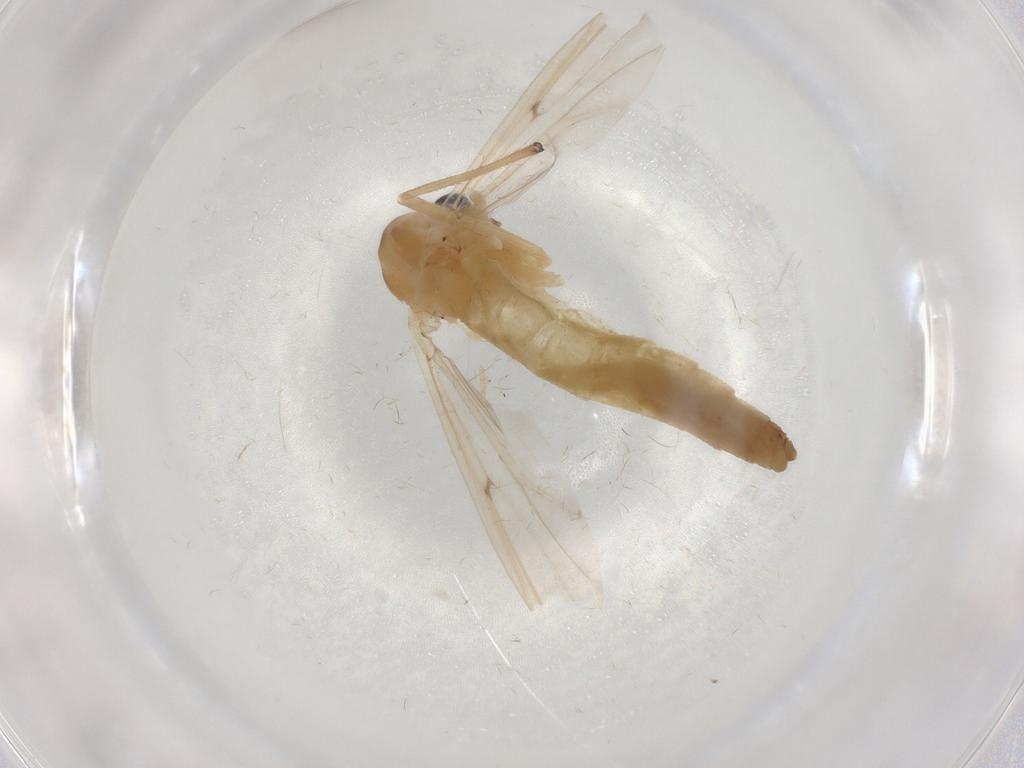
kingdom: Animalia
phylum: Arthropoda
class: Insecta
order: Diptera
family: Chironomidae
